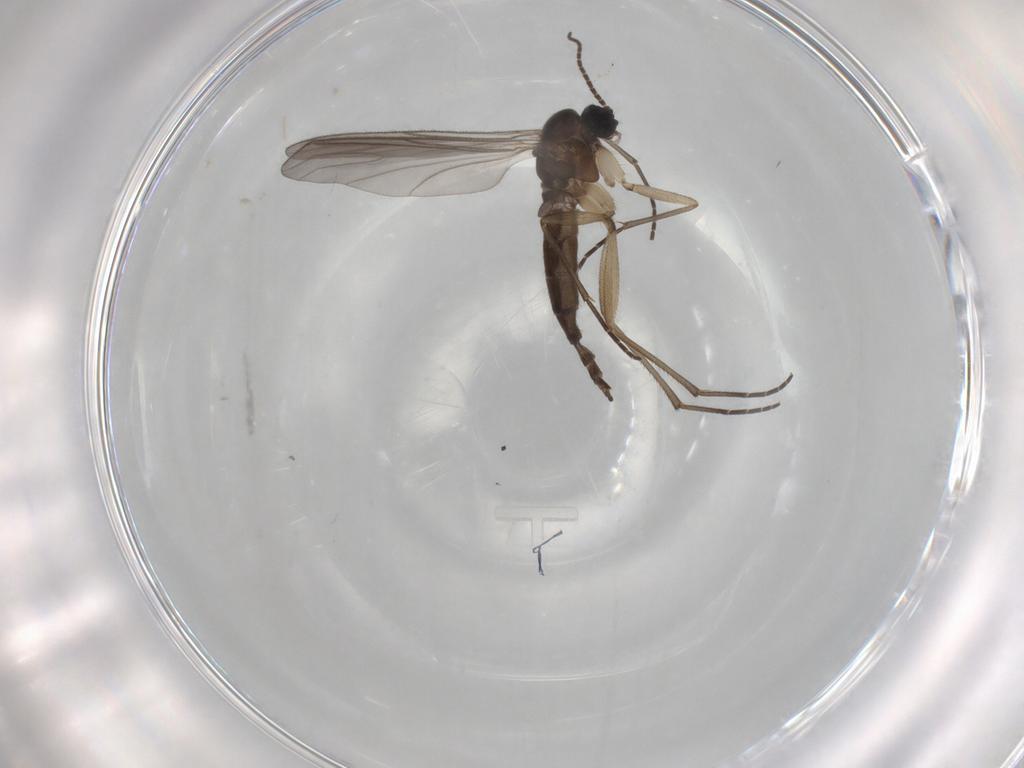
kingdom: Animalia
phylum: Arthropoda
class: Insecta
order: Diptera
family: Sciaridae
